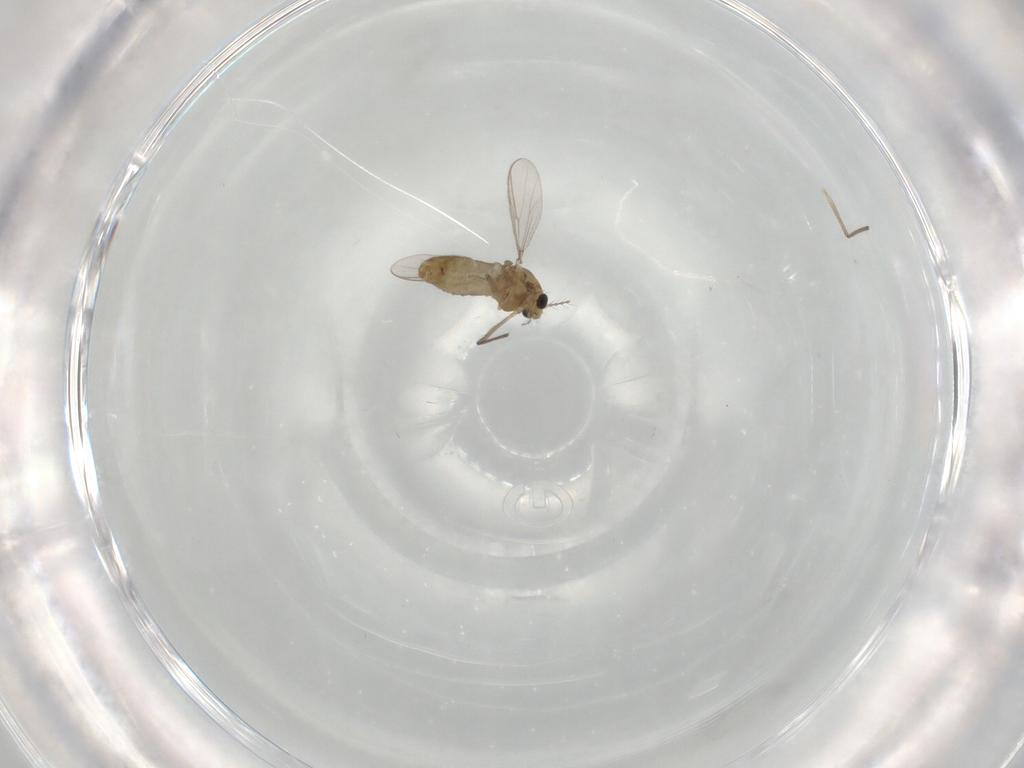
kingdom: Animalia
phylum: Arthropoda
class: Insecta
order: Diptera
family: Chironomidae
